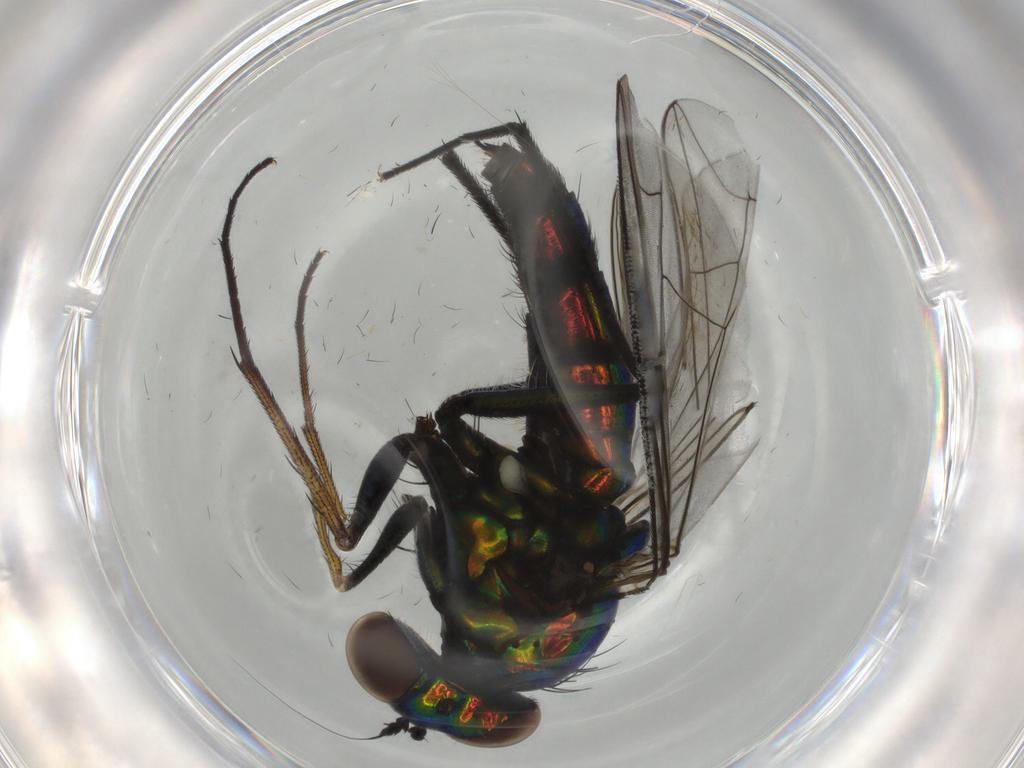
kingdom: Animalia
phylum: Arthropoda
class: Insecta
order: Diptera
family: Dolichopodidae
